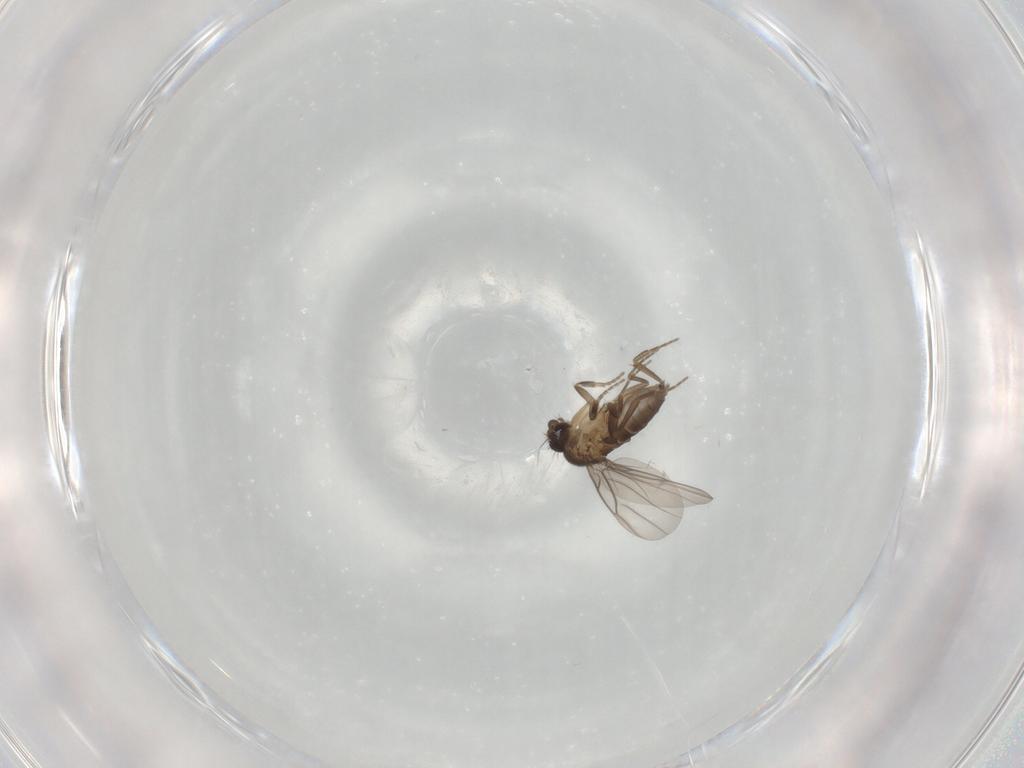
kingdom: Animalia
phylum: Arthropoda
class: Insecta
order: Diptera
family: Phoridae
